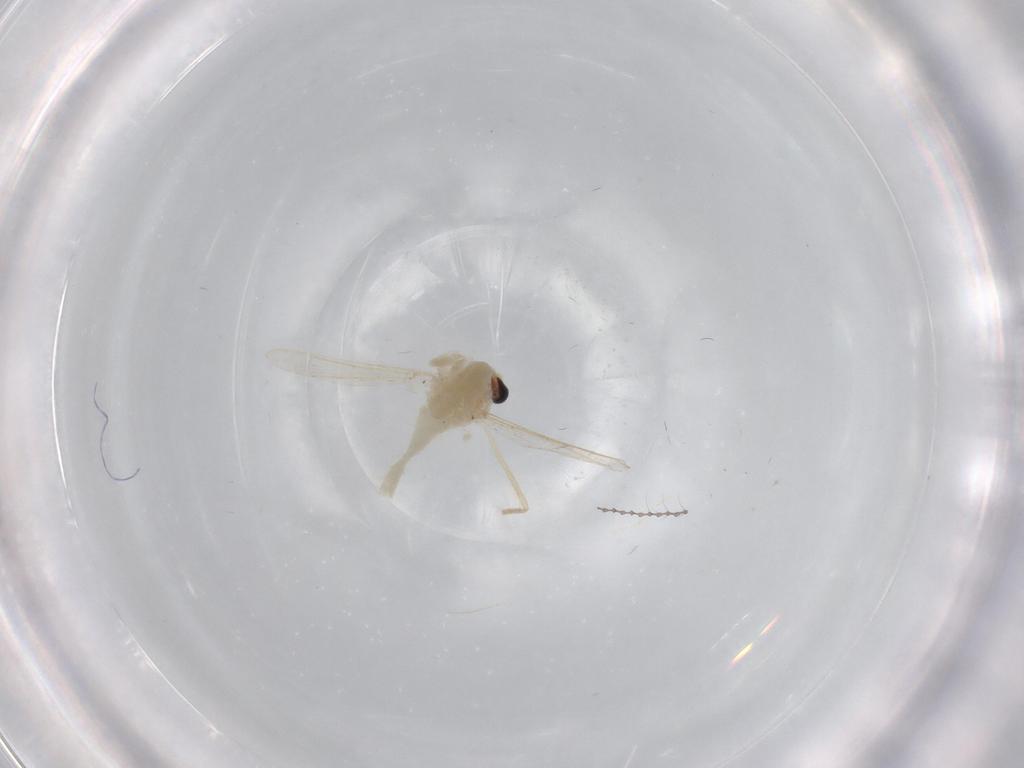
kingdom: Animalia
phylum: Arthropoda
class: Insecta
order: Diptera
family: Chironomidae
